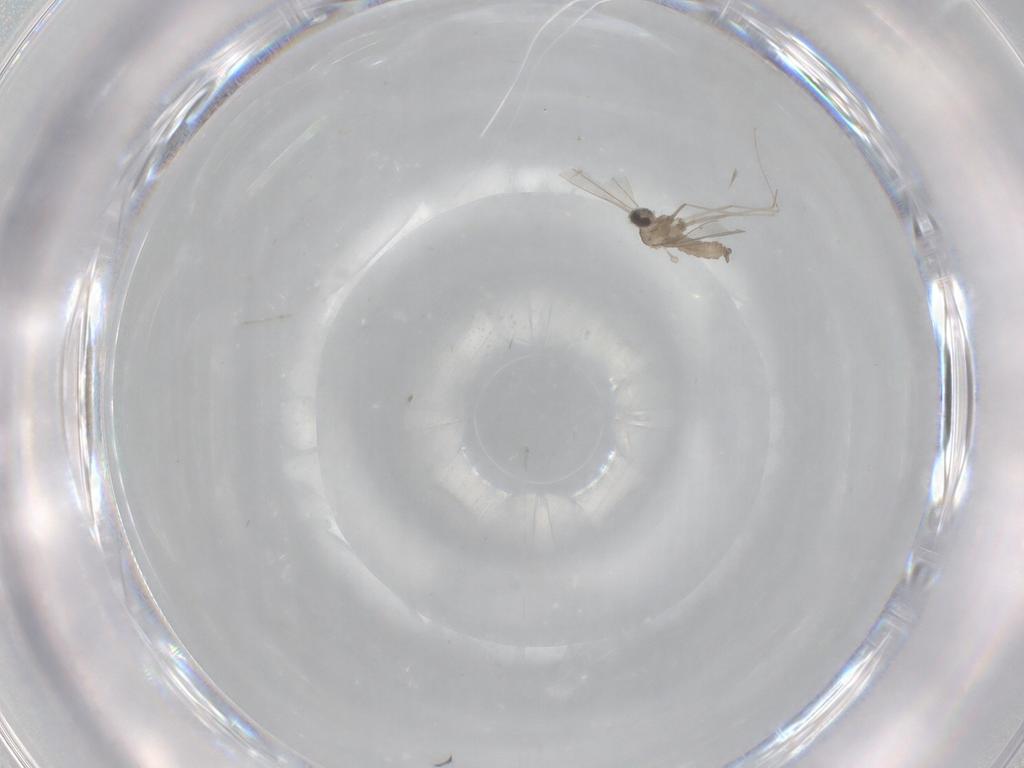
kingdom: Animalia
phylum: Arthropoda
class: Insecta
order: Diptera
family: Cecidomyiidae
